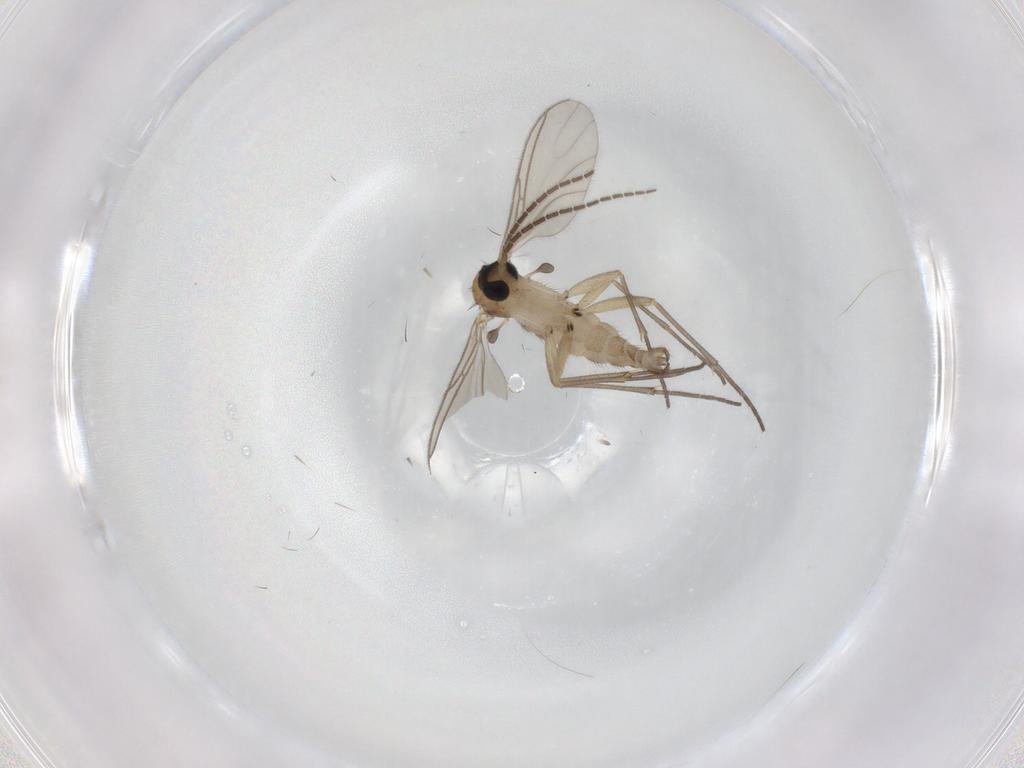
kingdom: Animalia
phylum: Arthropoda
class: Insecta
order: Diptera
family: Sciaridae
